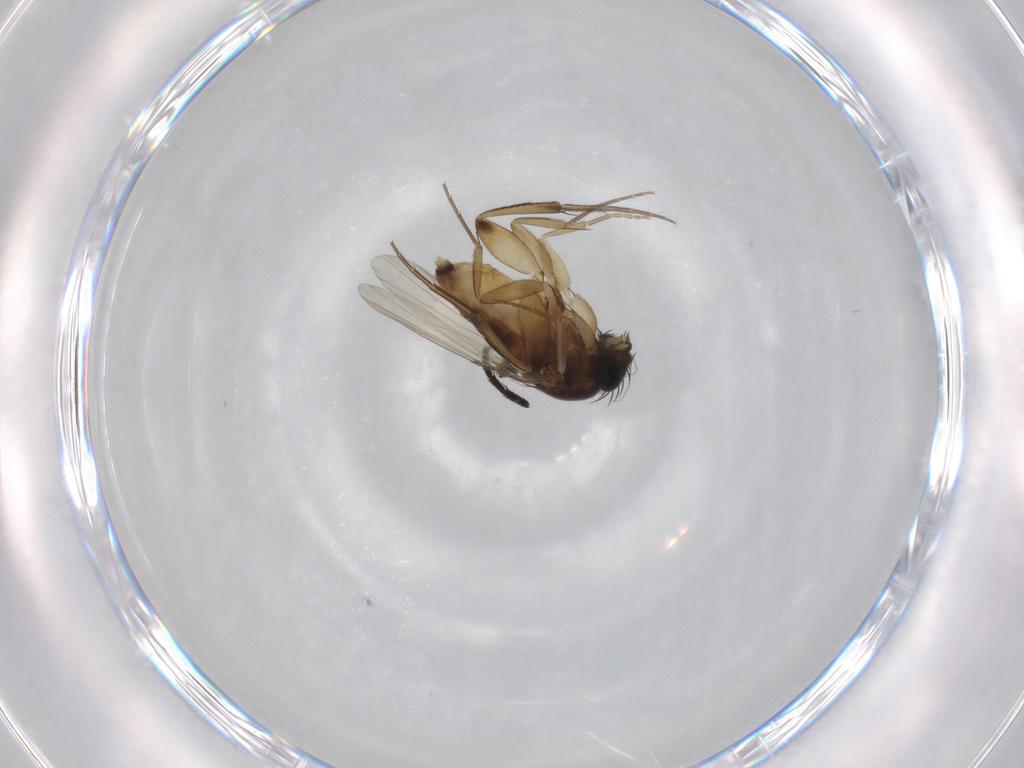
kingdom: Animalia
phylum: Arthropoda
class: Insecta
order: Diptera
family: Phoridae
